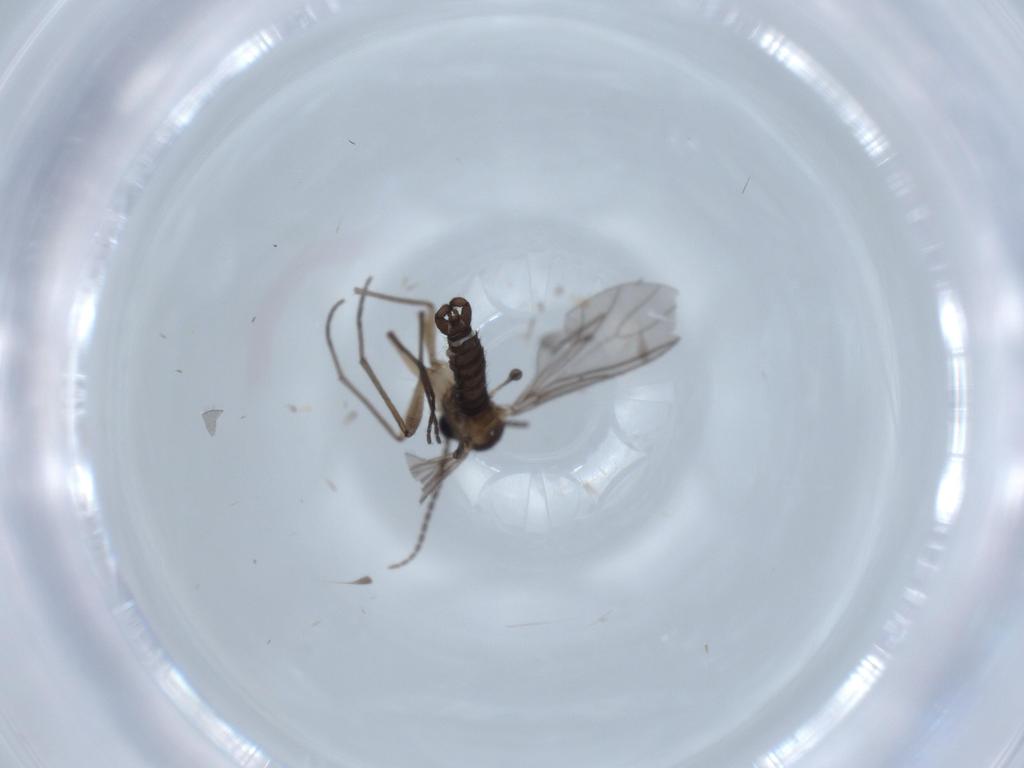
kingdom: Animalia
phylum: Arthropoda
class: Insecta
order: Diptera
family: Sciaridae
